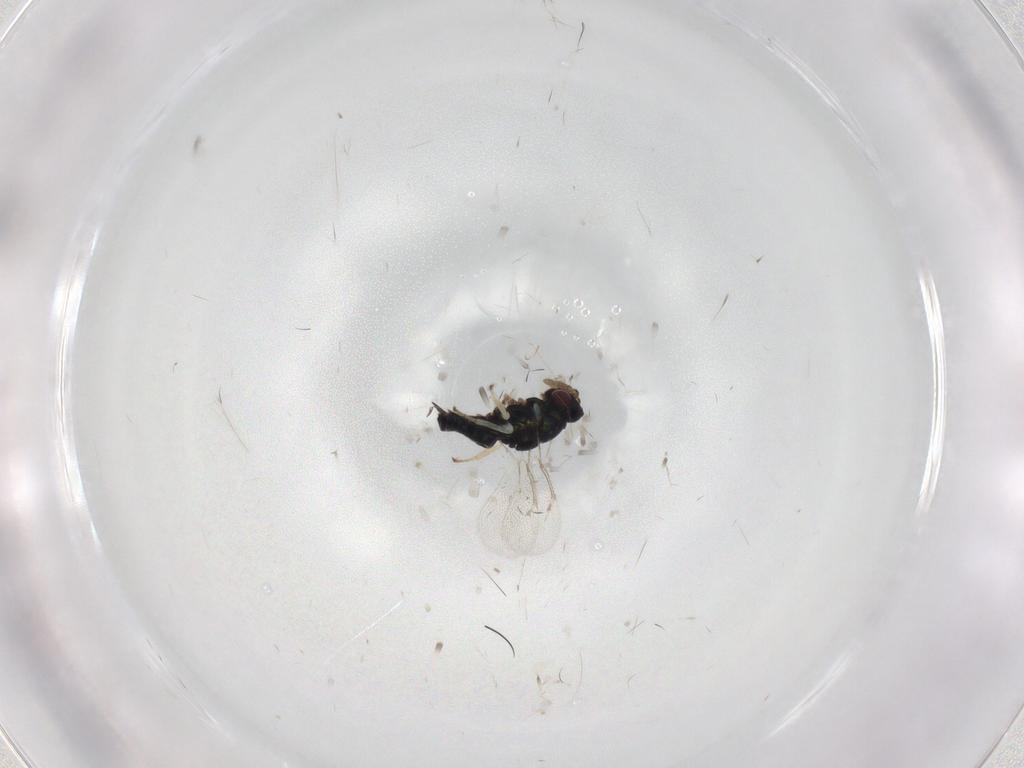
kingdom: Animalia
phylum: Arthropoda
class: Insecta
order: Hymenoptera
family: Eulophidae
